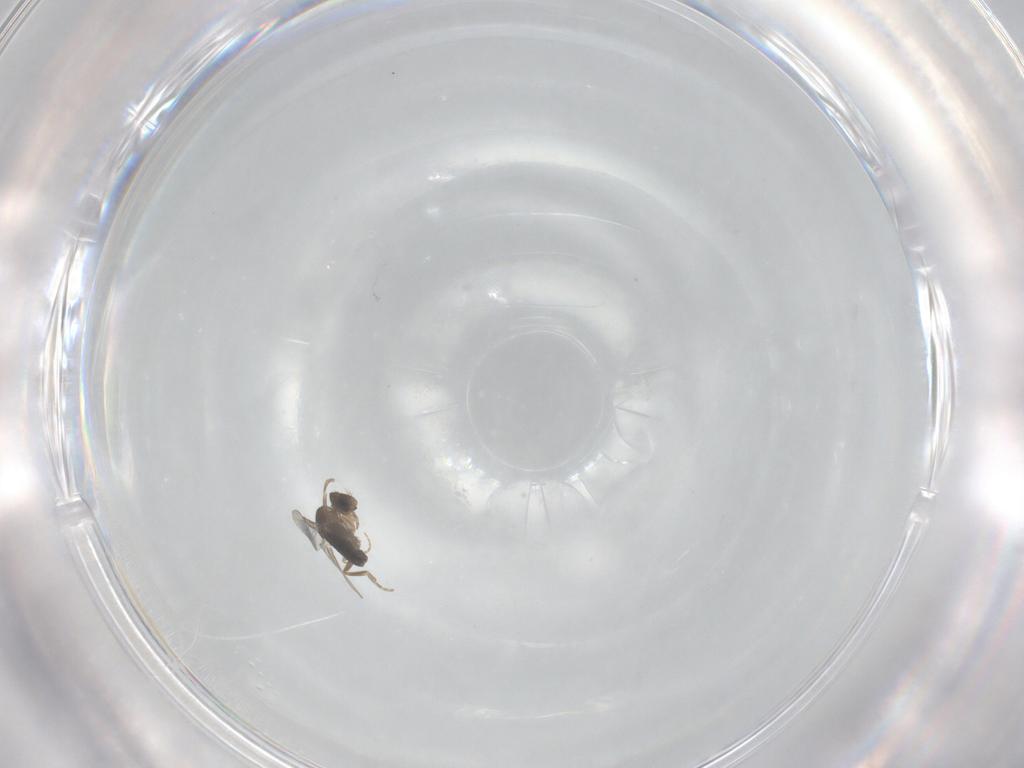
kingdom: Animalia
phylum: Arthropoda
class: Insecta
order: Diptera
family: Phoridae
